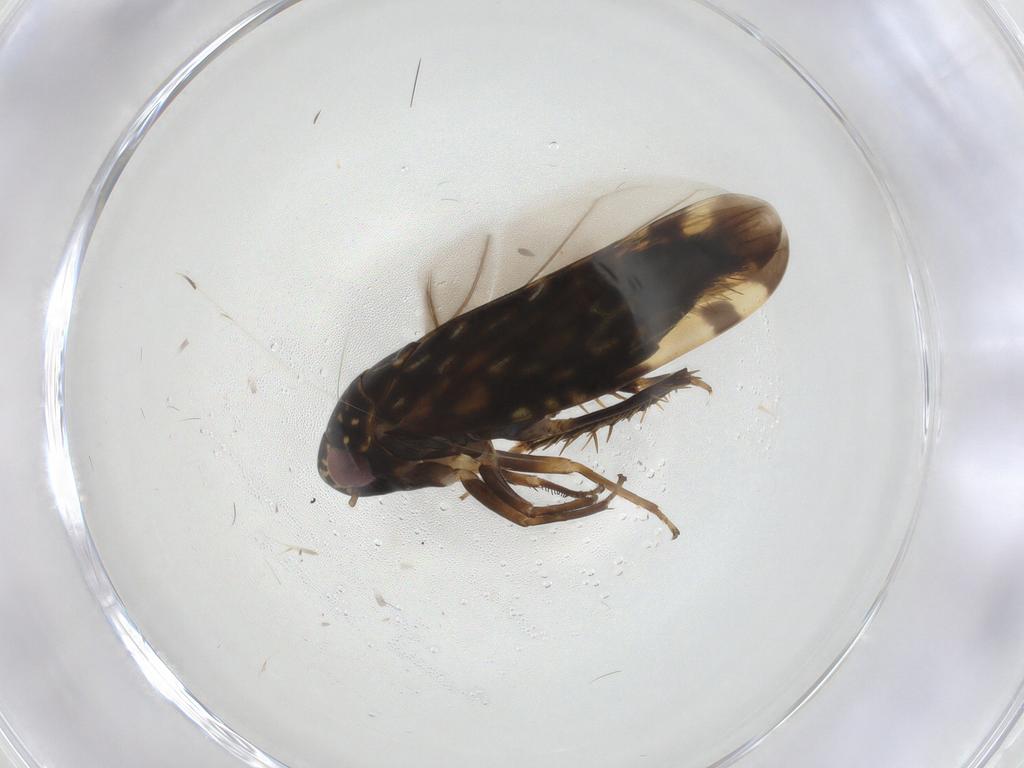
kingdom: Animalia
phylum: Arthropoda
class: Insecta
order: Hemiptera
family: Cicadellidae
